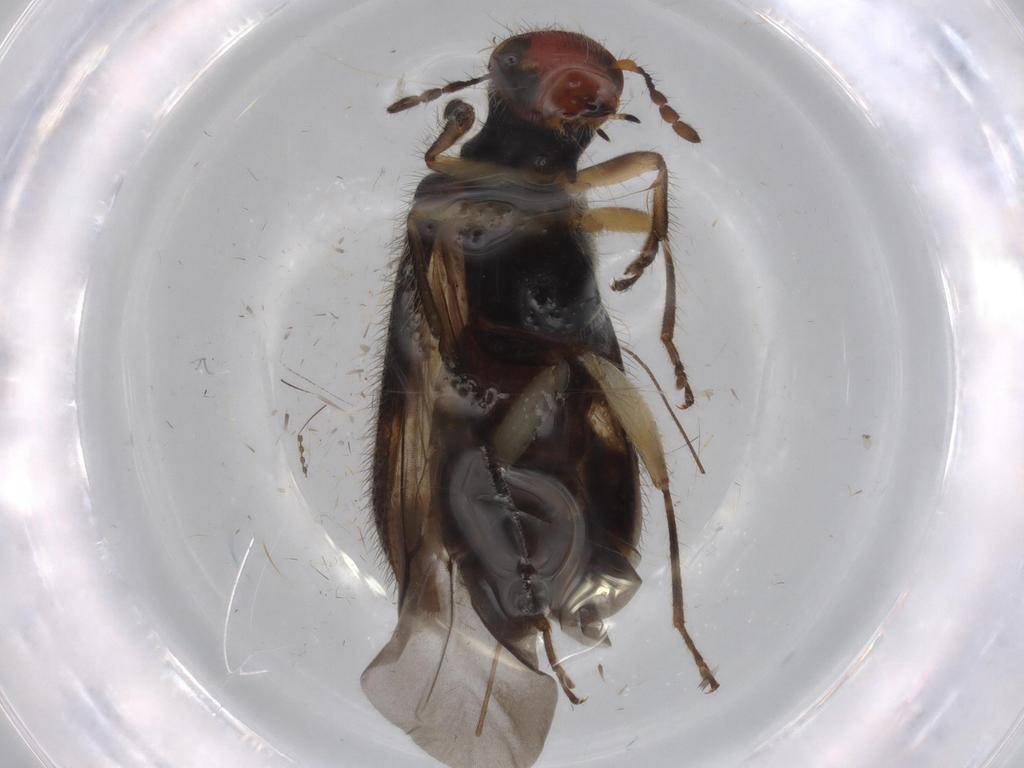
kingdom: Animalia
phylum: Arthropoda
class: Insecta
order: Coleoptera
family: Cleridae
